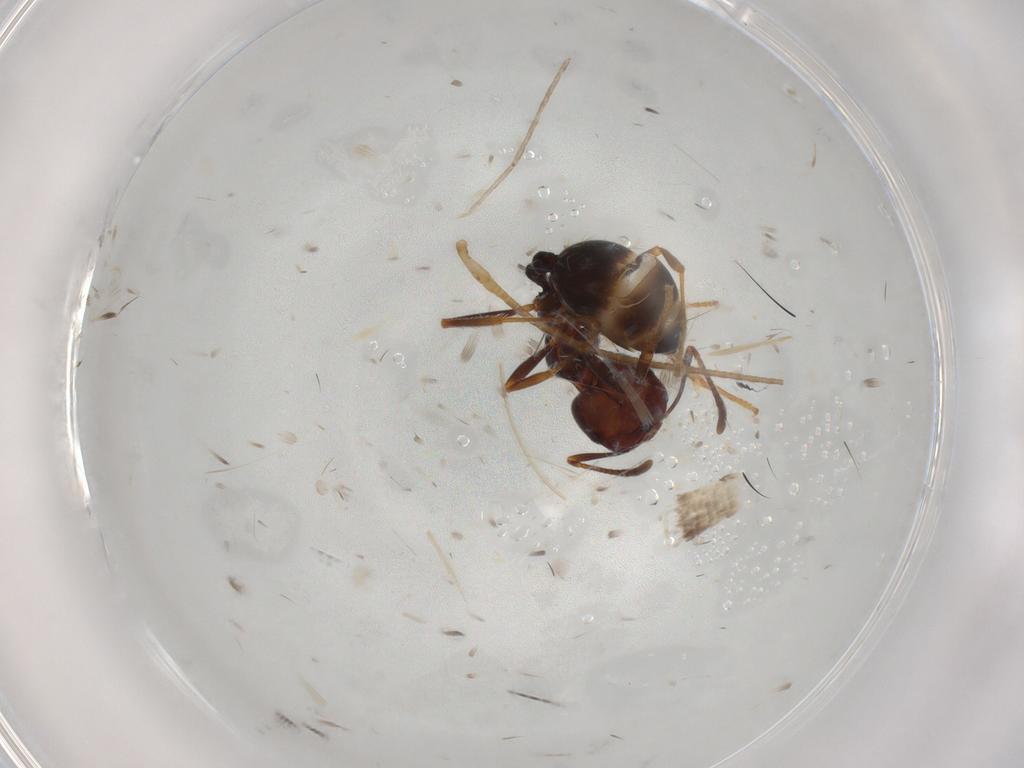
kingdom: Animalia
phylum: Arthropoda
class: Insecta
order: Hymenoptera
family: Formicidae
